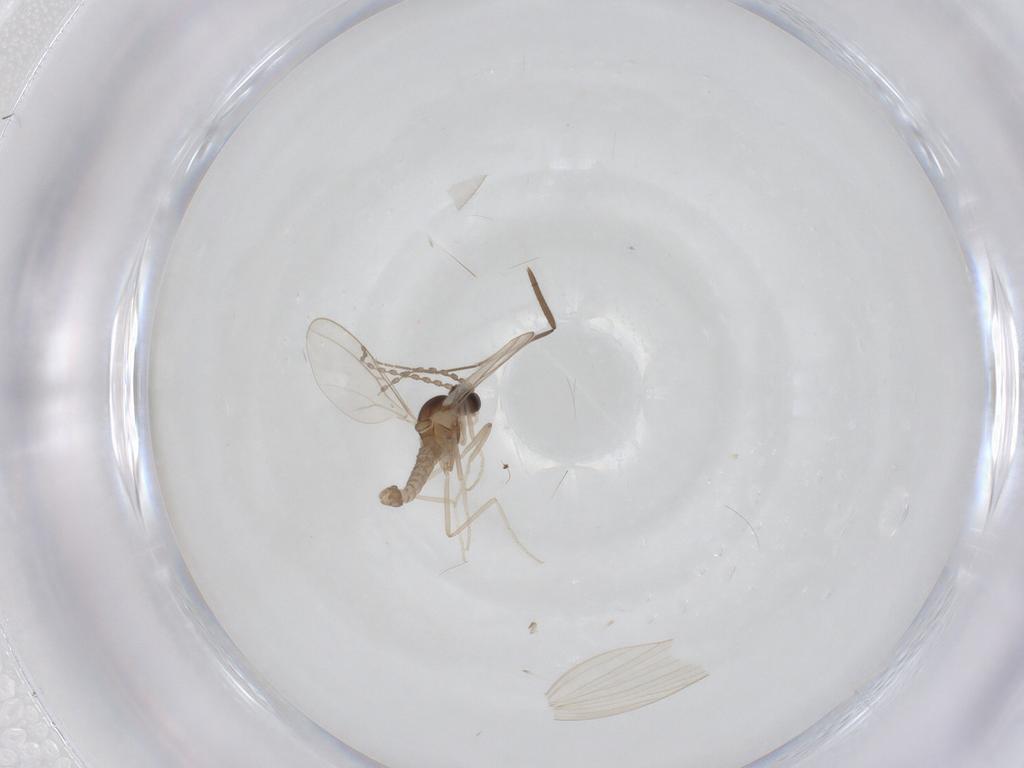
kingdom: Animalia
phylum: Arthropoda
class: Insecta
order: Diptera
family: Cecidomyiidae
